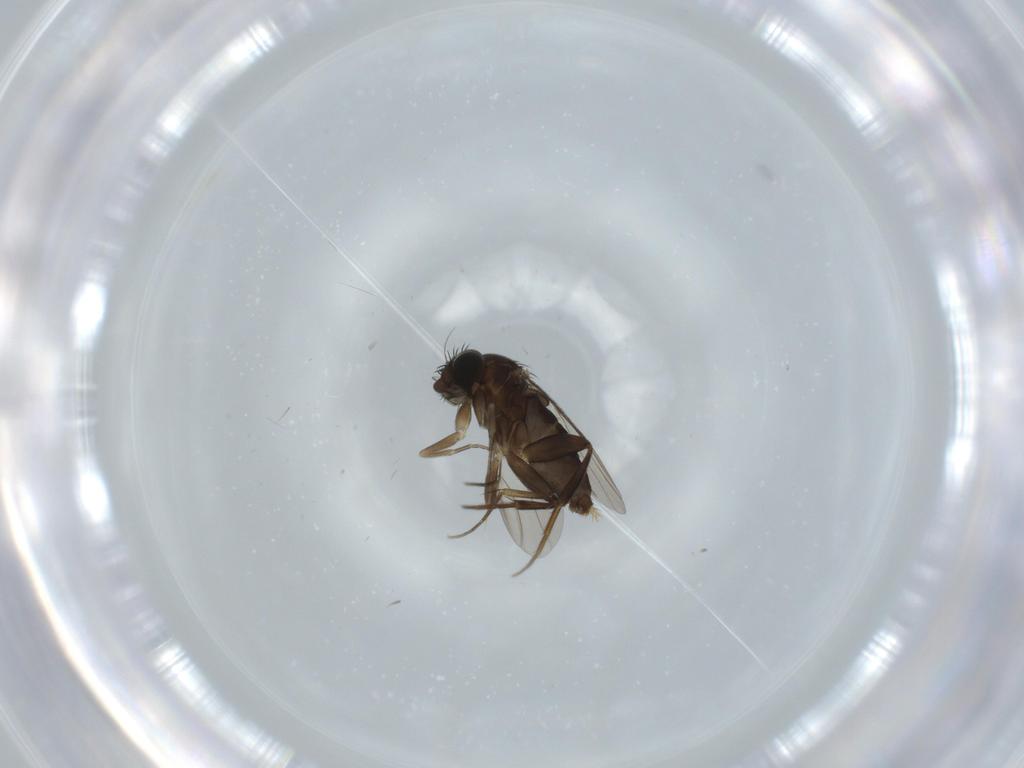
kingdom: Animalia
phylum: Arthropoda
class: Insecta
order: Diptera
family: Phoridae
